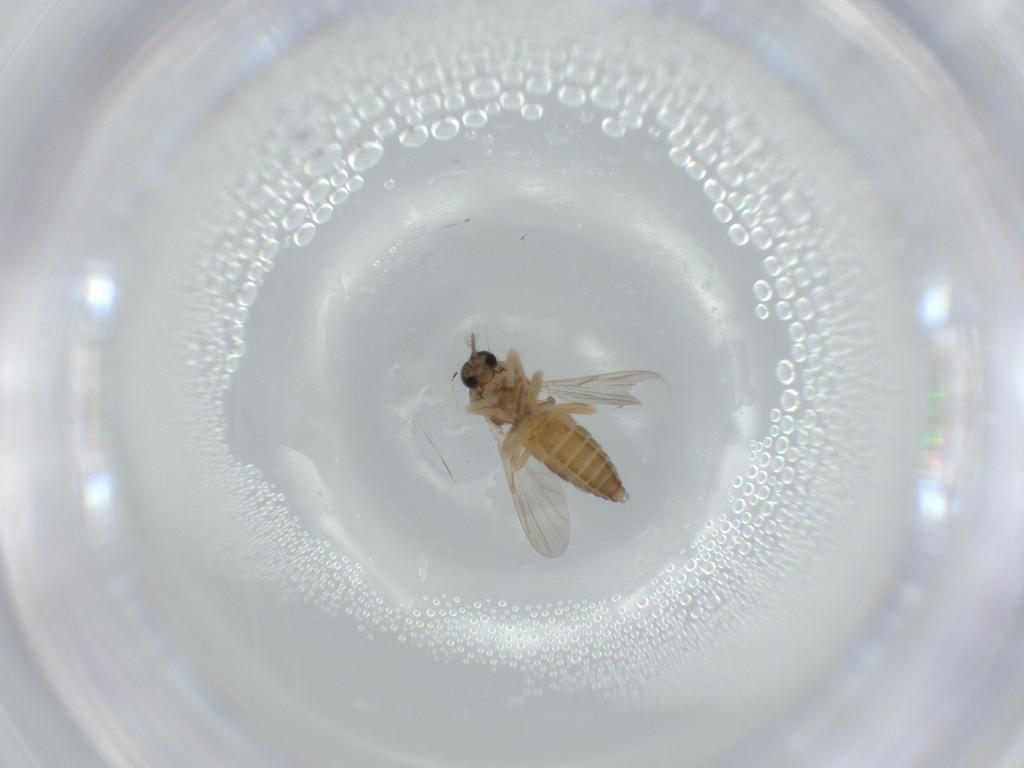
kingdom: Animalia
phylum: Arthropoda
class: Insecta
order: Diptera
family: Ceratopogonidae
